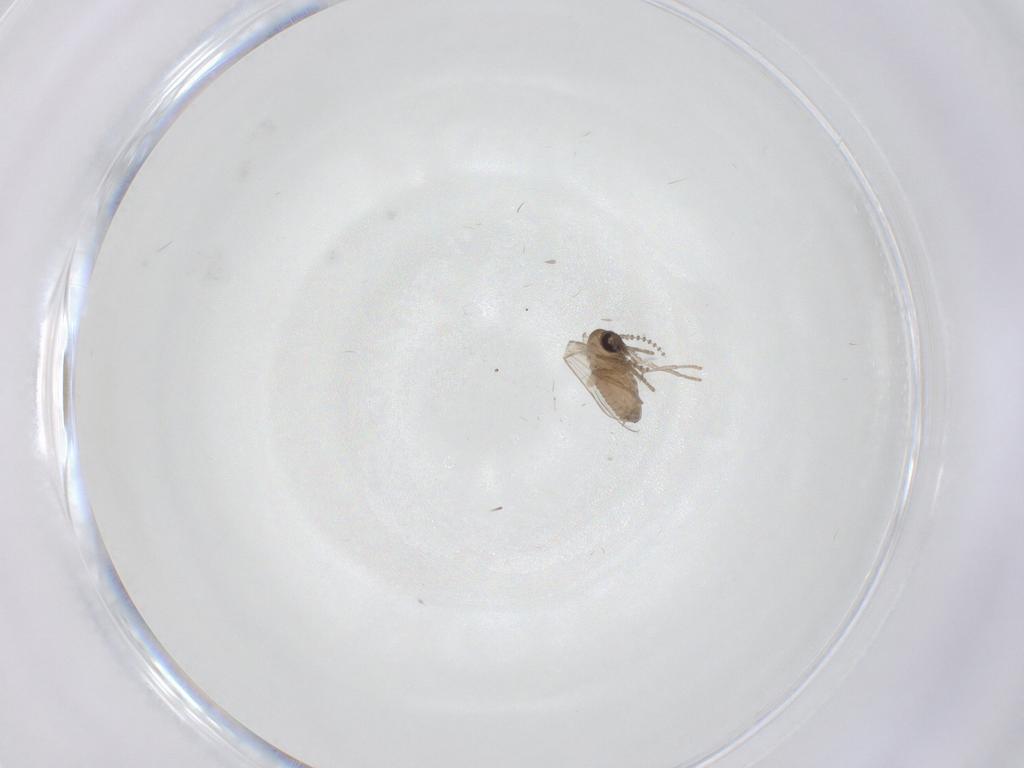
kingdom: Animalia
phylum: Arthropoda
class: Insecta
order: Diptera
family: Psychodidae
